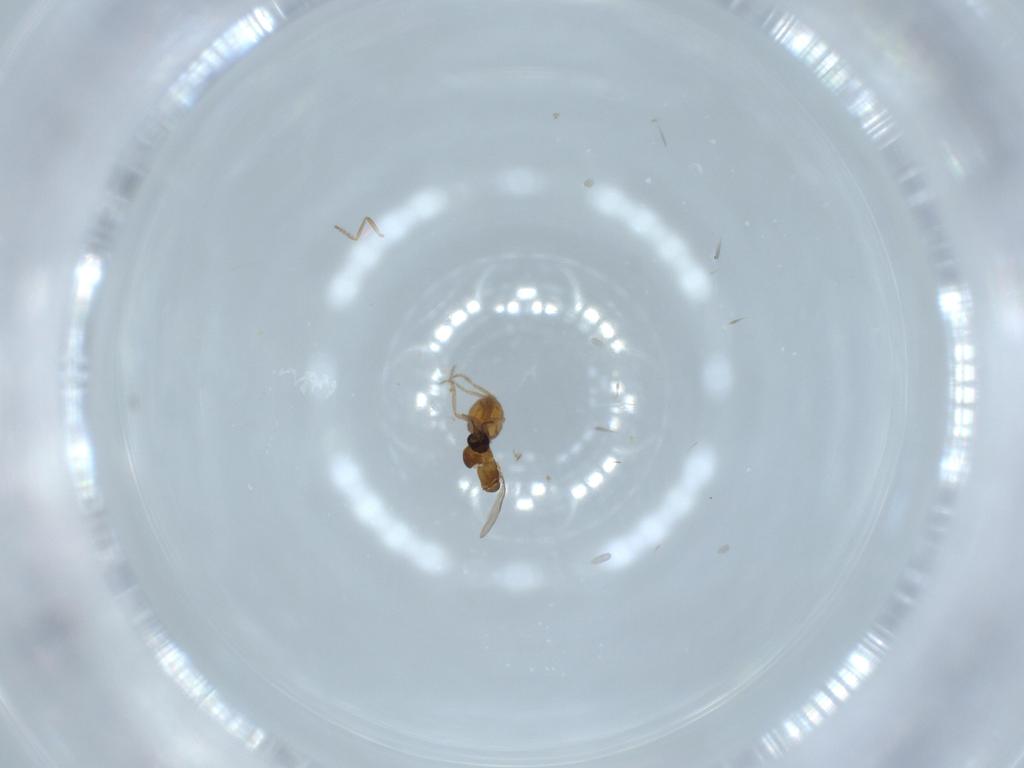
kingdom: Animalia
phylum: Arthropoda
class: Insecta
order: Diptera
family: Ceratopogonidae
